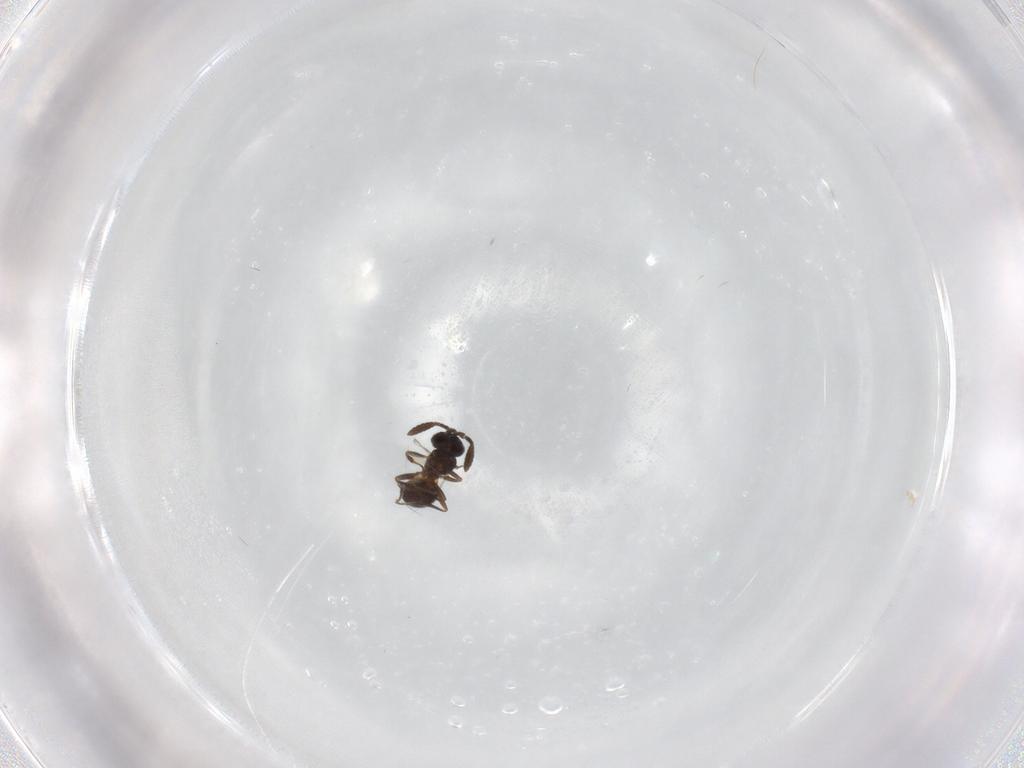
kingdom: Animalia
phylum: Arthropoda
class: Insecta
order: Hymenoptera
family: Scelionidae
